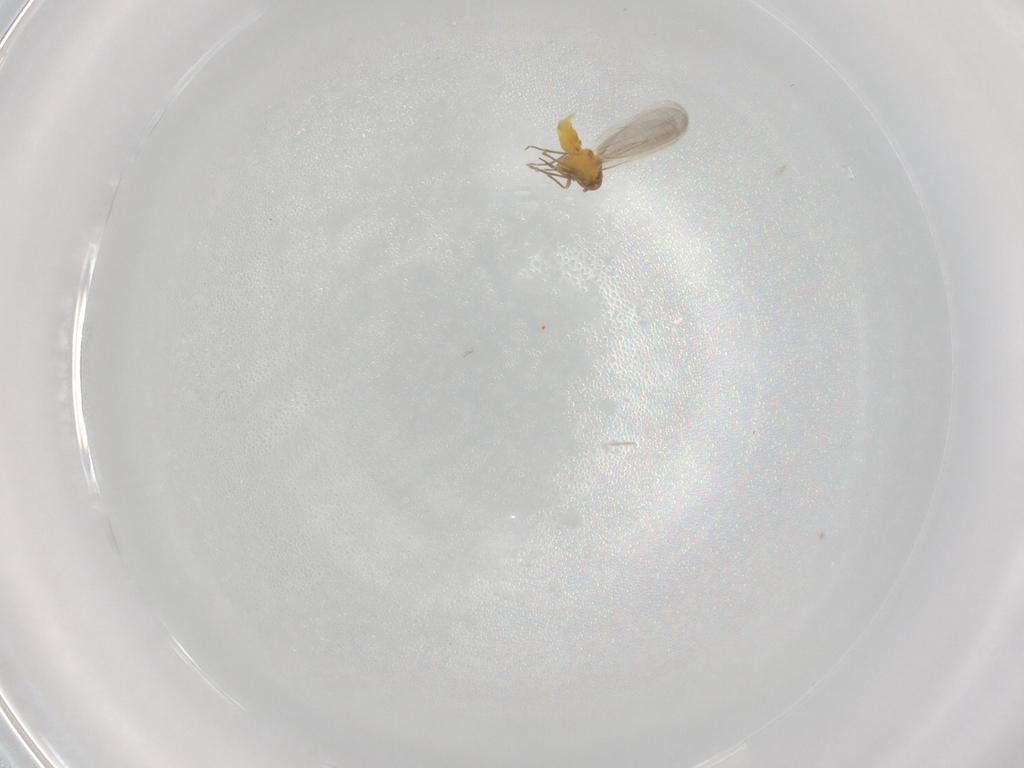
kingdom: Animalia
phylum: Arthropoda
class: Insecta
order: Hemiptera
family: Aleyrodidae
